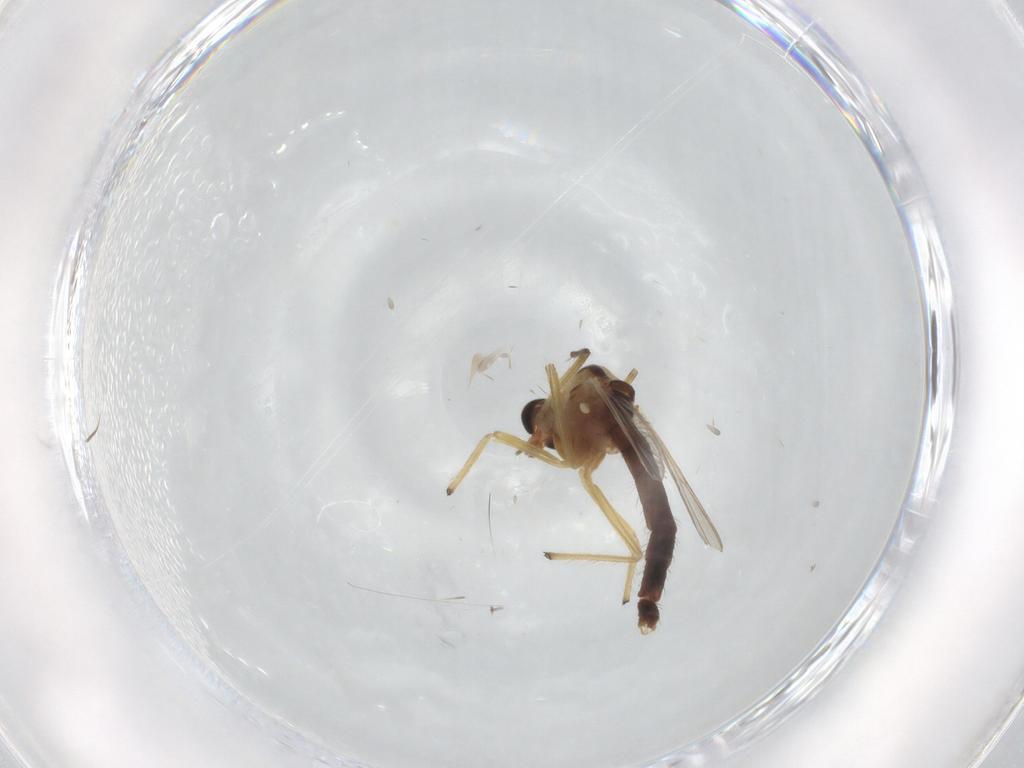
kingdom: Animalia
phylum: Arthropoda
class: Insecta
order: Diptera
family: Chironomidae
